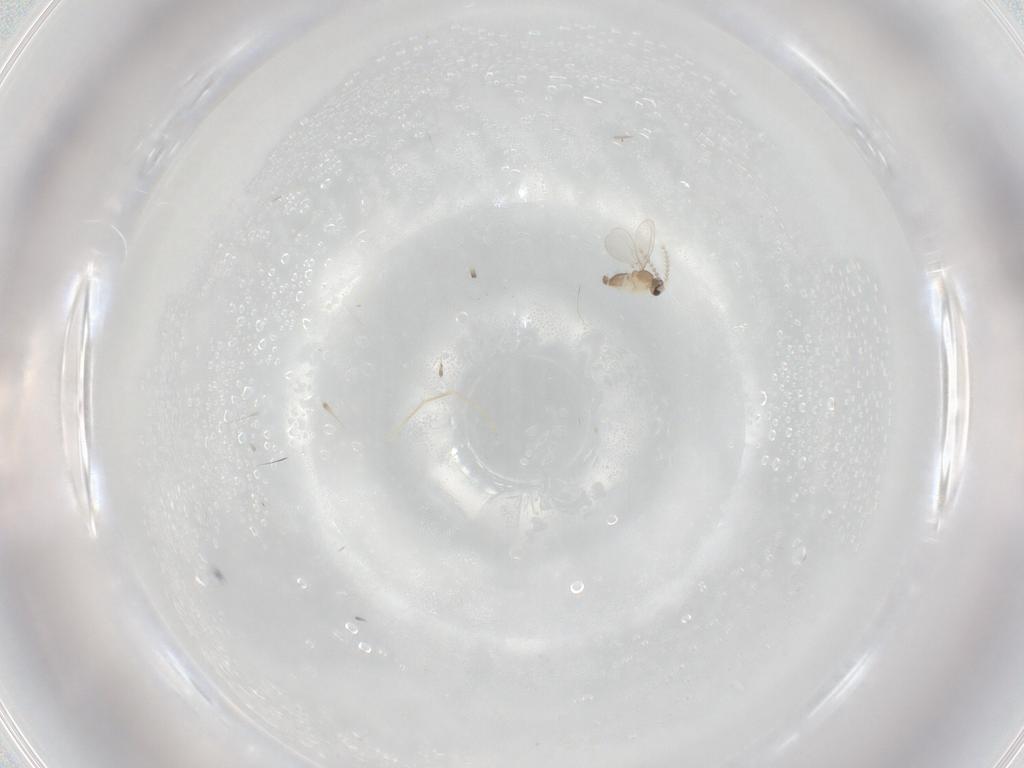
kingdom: Animalia
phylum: Arthropoda
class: Insecta
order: Diptera
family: Cecidomyiidae
